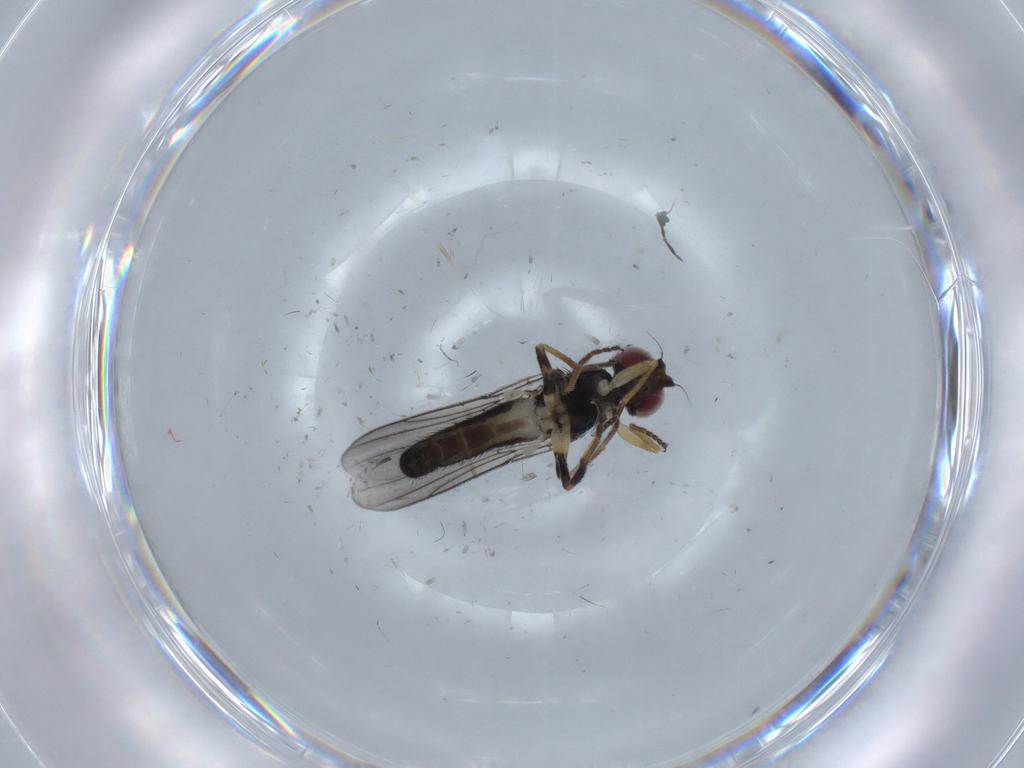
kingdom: Animalia
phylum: Arthropoda
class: Insecta
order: Diptera
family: Chloropidae
